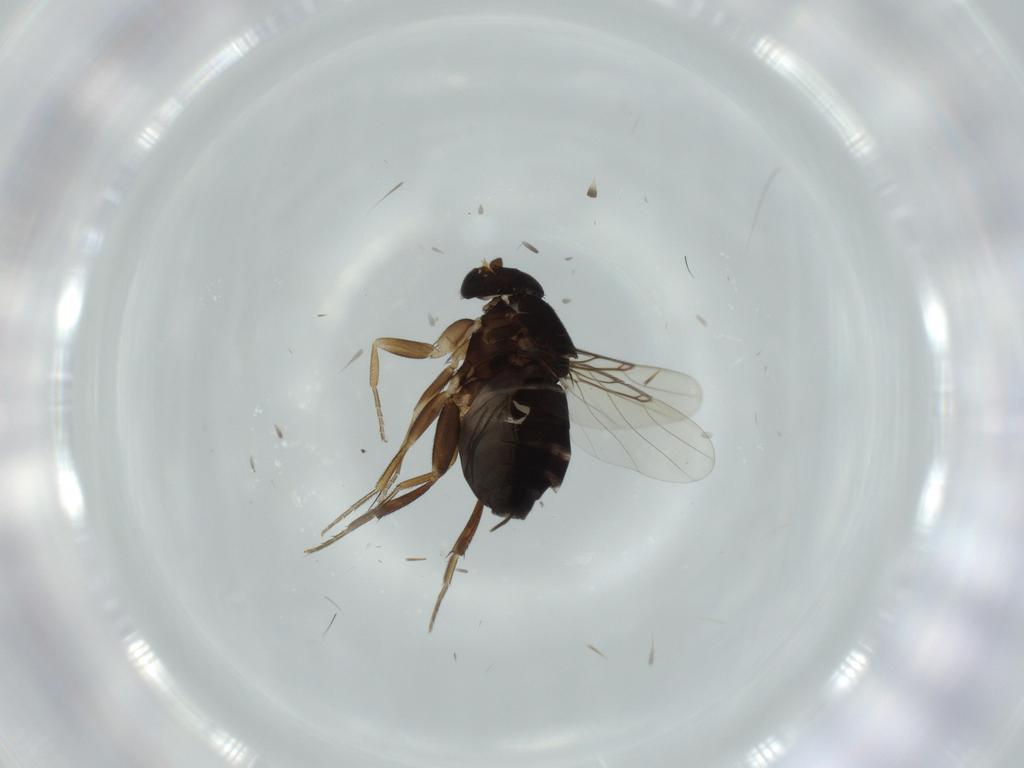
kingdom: Animalia
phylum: Arthropoda
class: Insecta
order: Diptera
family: Phoridae
